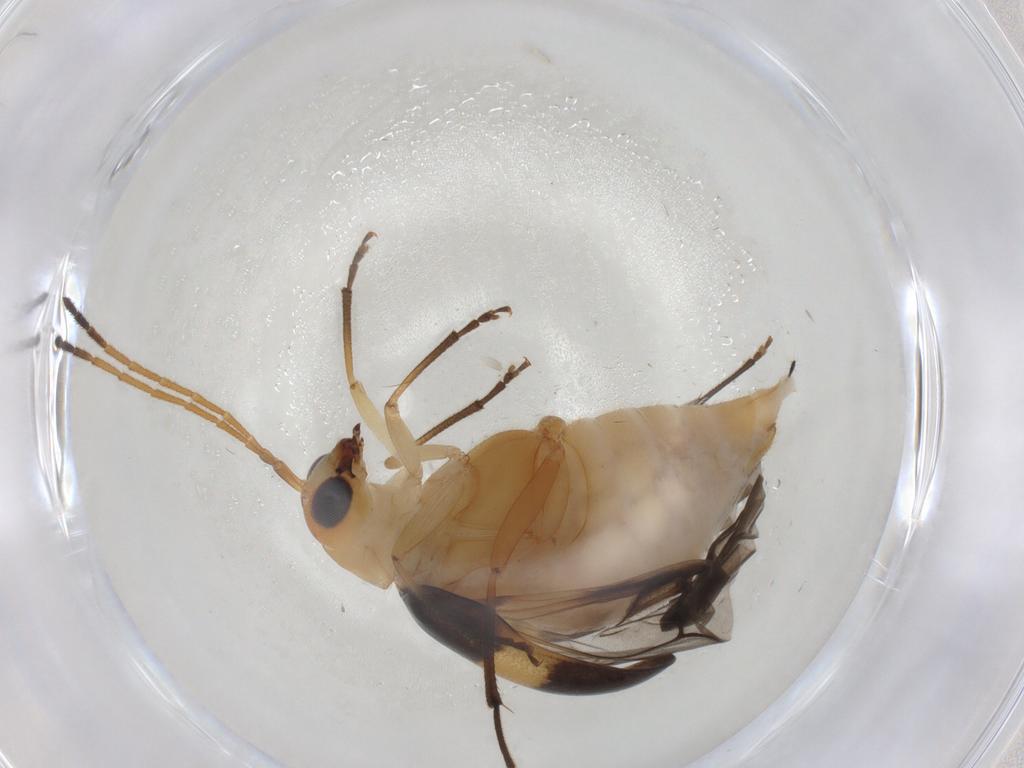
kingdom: Animalia
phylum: Arthropoda
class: Insecta
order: Coleoptera
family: Chrysomelidae
